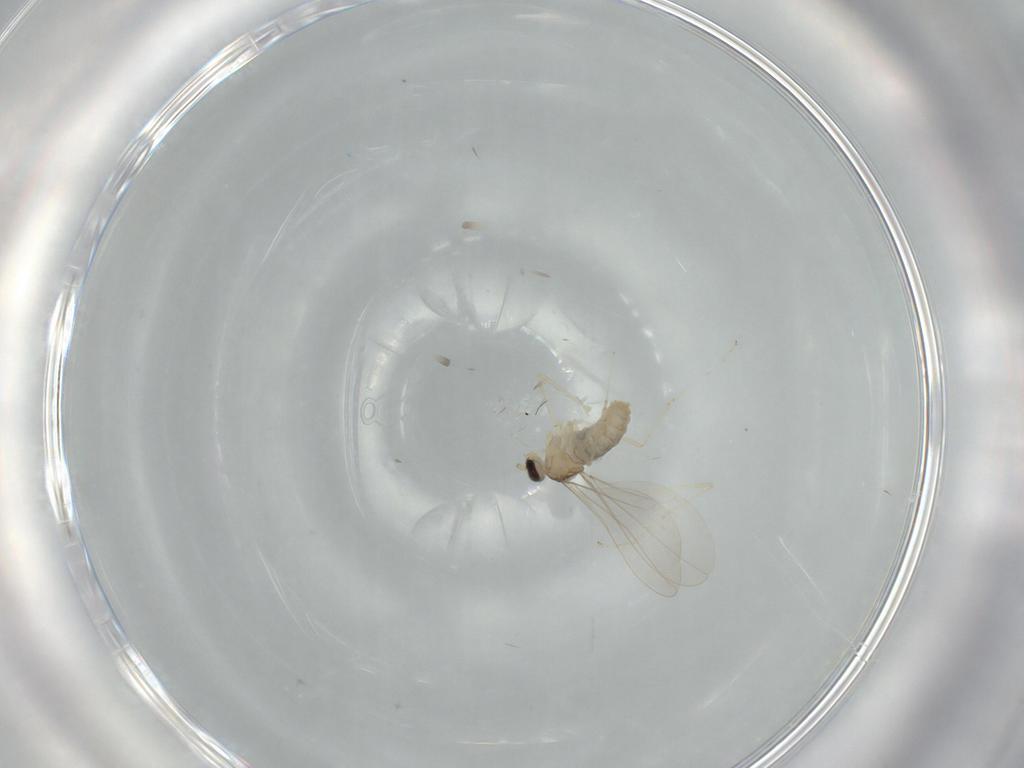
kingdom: Animalia
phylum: Arthropoda
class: Insecta
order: Diptera
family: Cecidomyiidae
